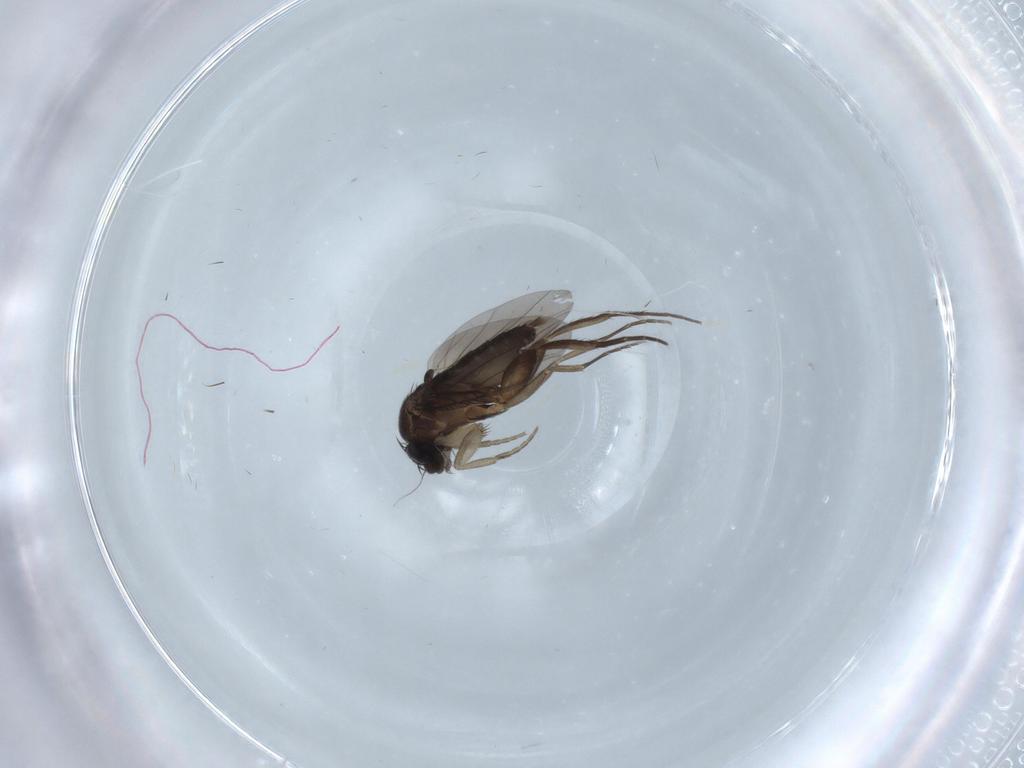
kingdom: Animalia
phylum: Arthropoda
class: Insecta
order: Diptera
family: Phoridae
